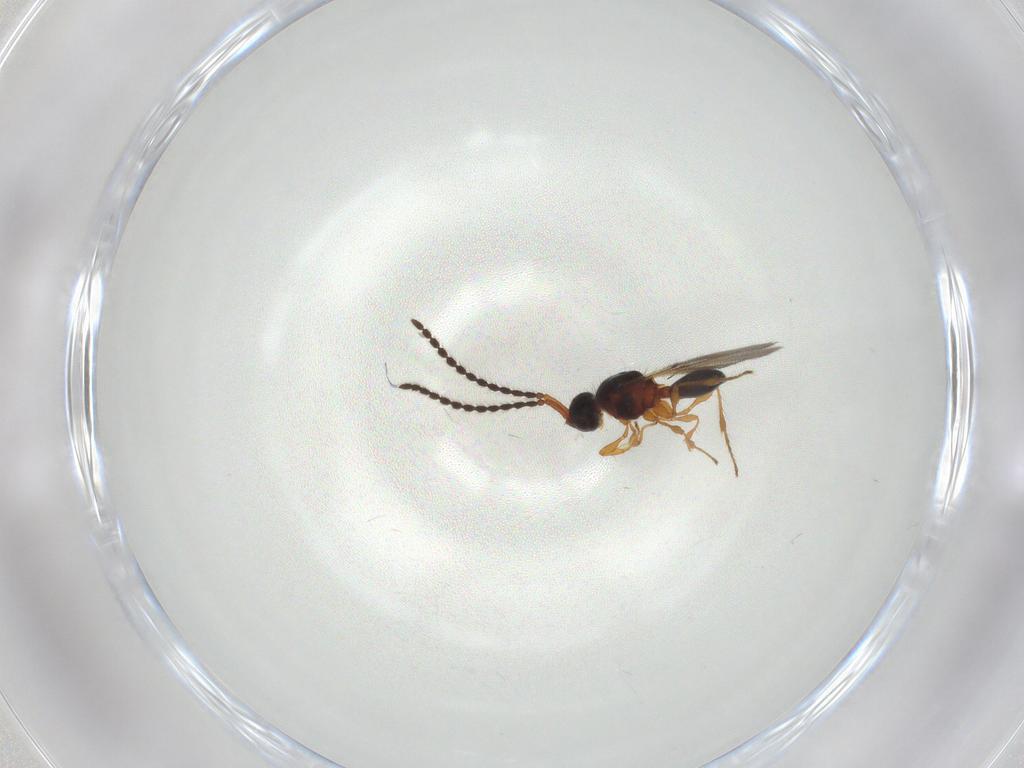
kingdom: Animalia
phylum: Arthropoda
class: Insecta
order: Hymenoptera
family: Diapriidae
